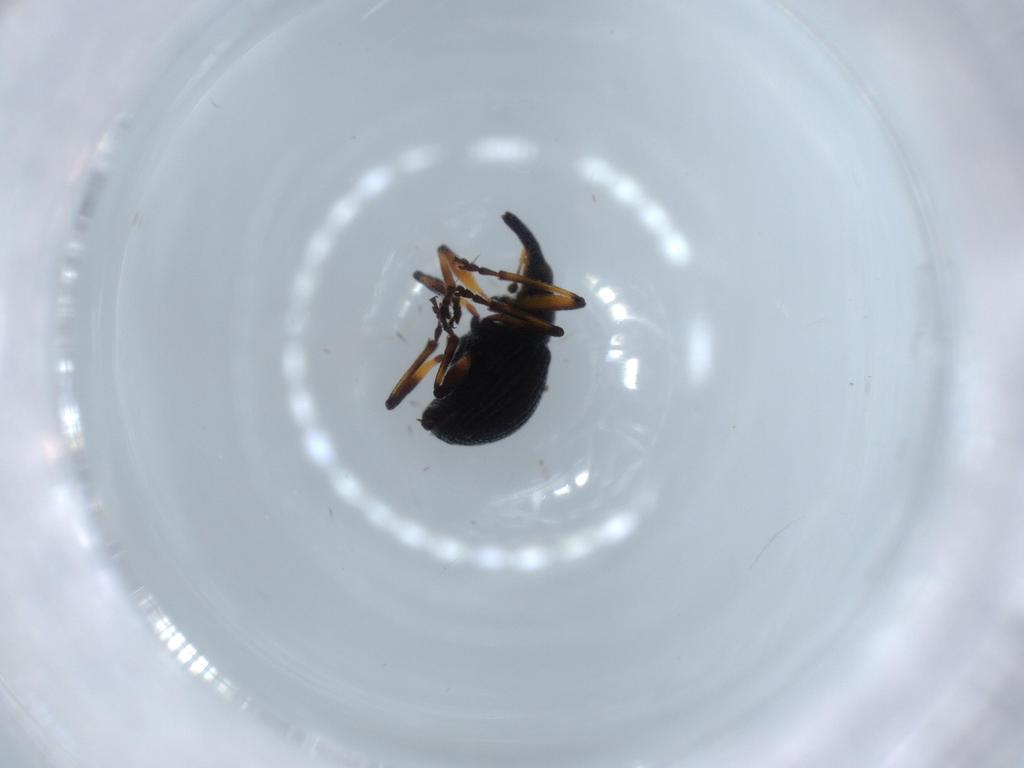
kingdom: Animalia
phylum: Arthropoda
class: Insecta
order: Coleoptera
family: Brentidae
